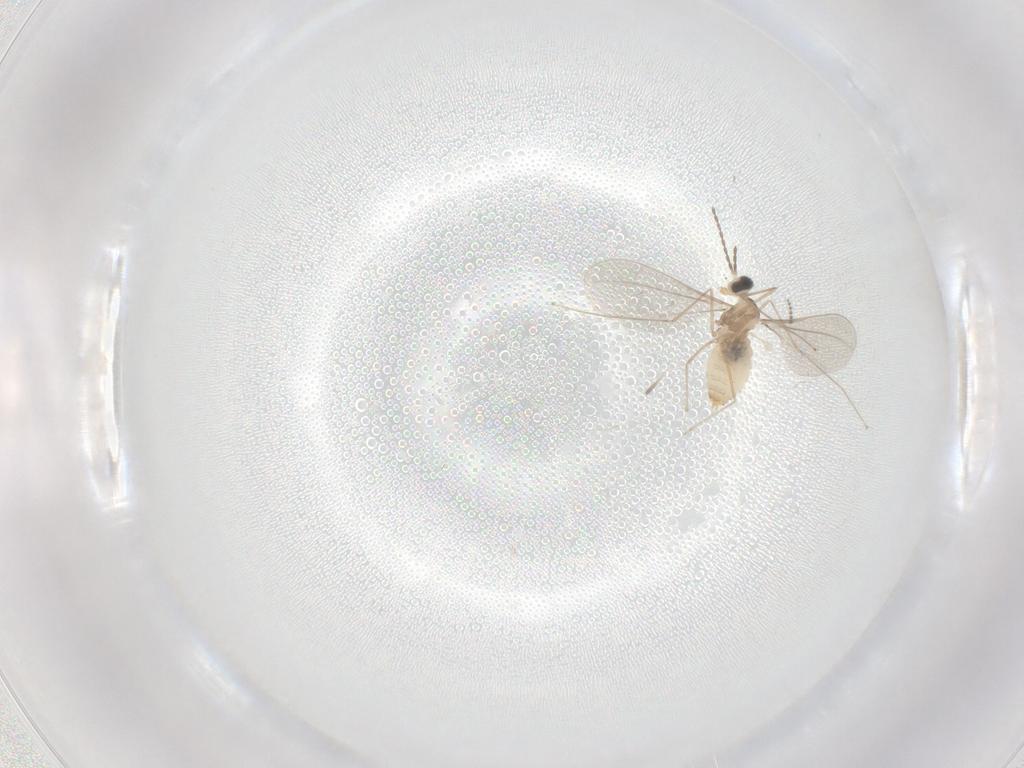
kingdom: Animalia
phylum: Arthropoda
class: Insecta
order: Diptera
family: Cecidomyiidae
